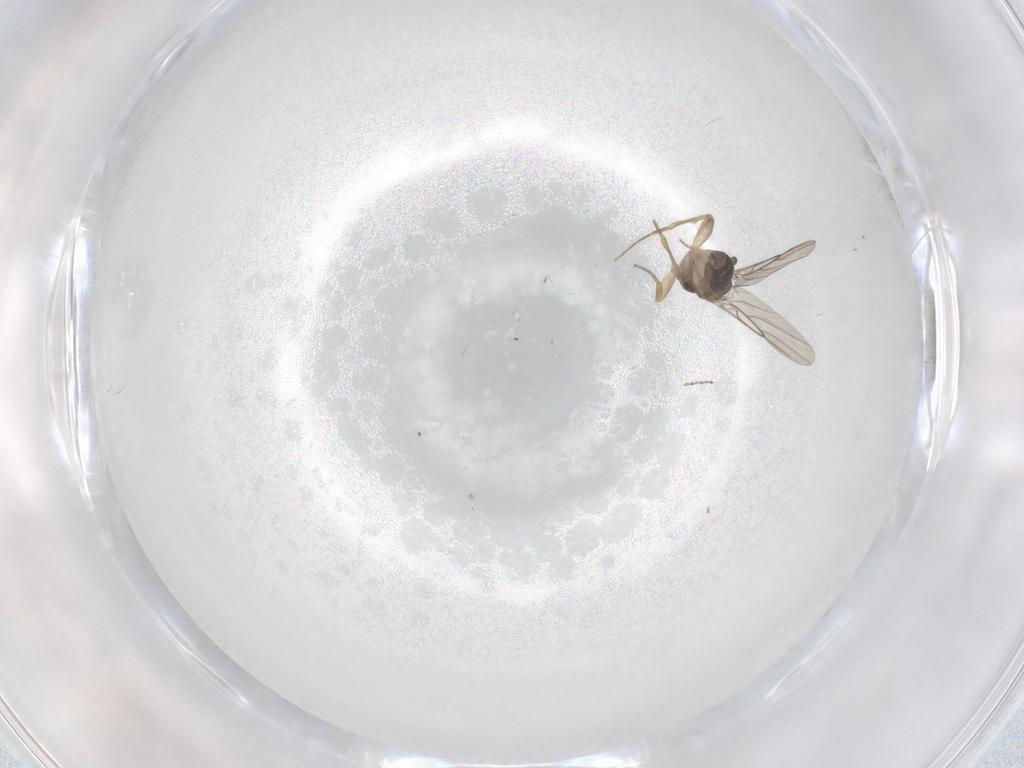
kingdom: Animalia
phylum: Arthropoda
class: Insecta
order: Diptera
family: Phoridae
